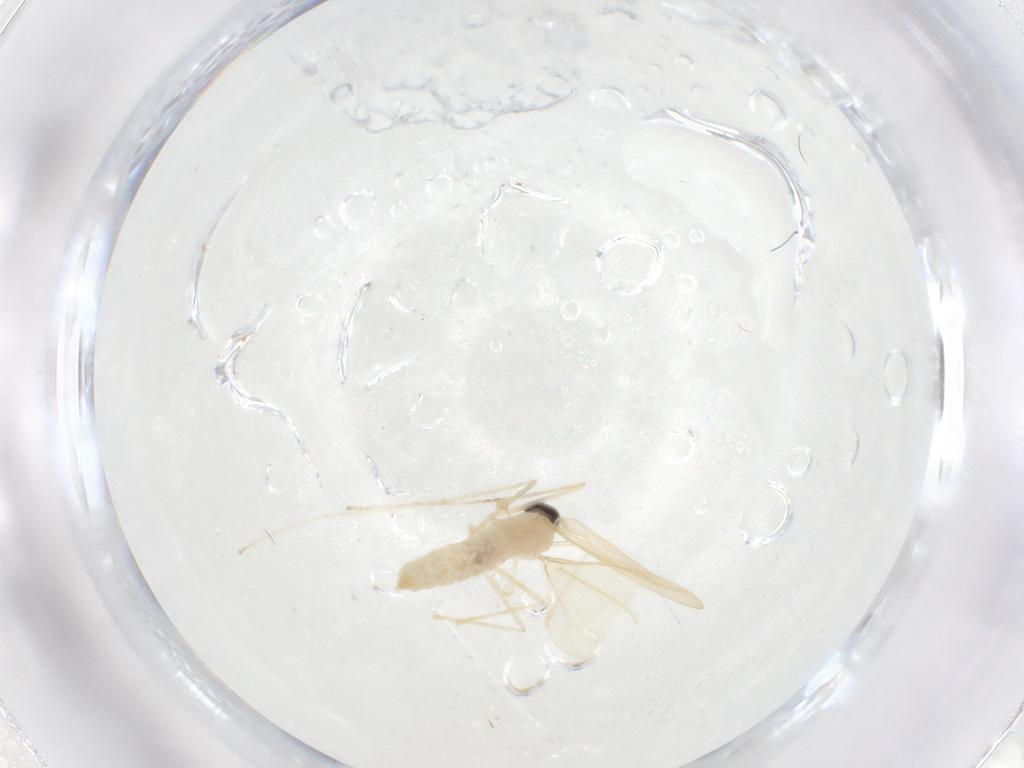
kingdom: Animalia
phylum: Arthropoda
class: Insecta
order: Diptera
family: Cecidomyiidae
